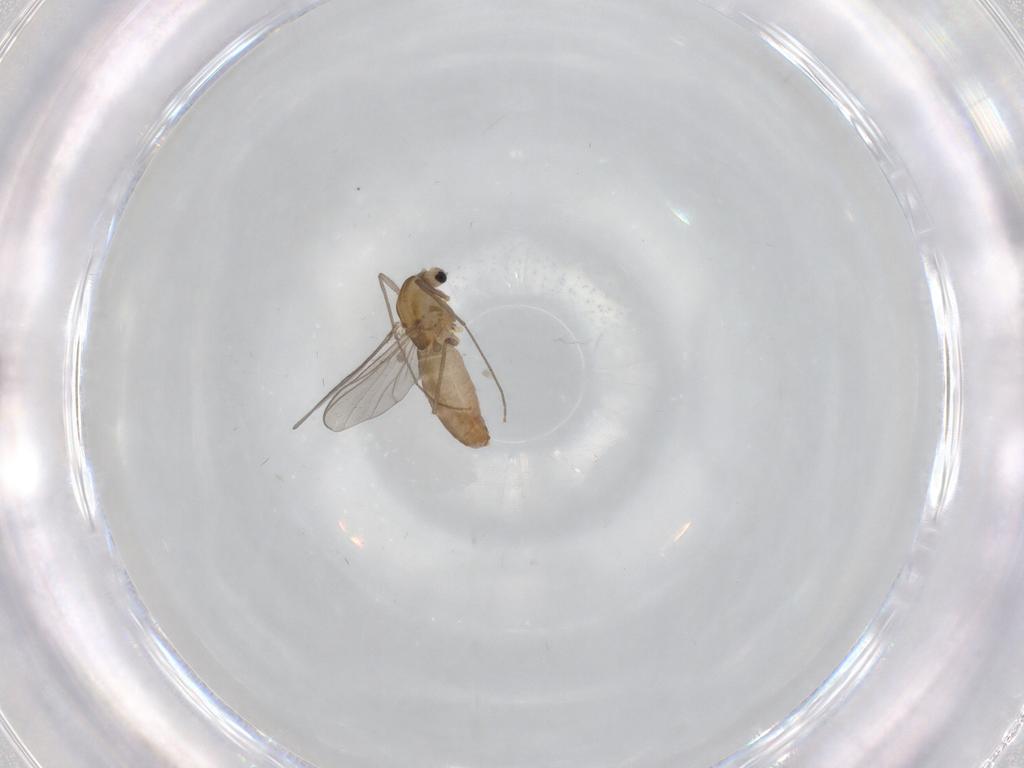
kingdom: Animalia
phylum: Arthropoda
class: Insecta
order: Diptera
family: Chironomidae
